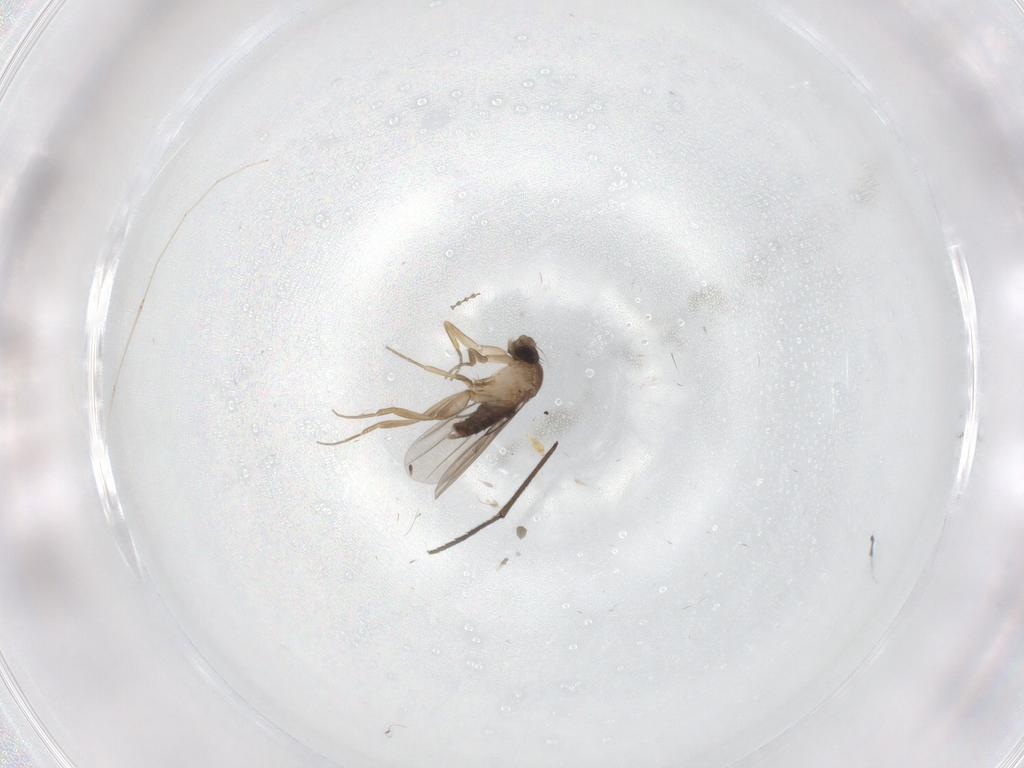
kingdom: Animalia
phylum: Arthropoda
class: Insecta
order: Diptera
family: Phoridae
